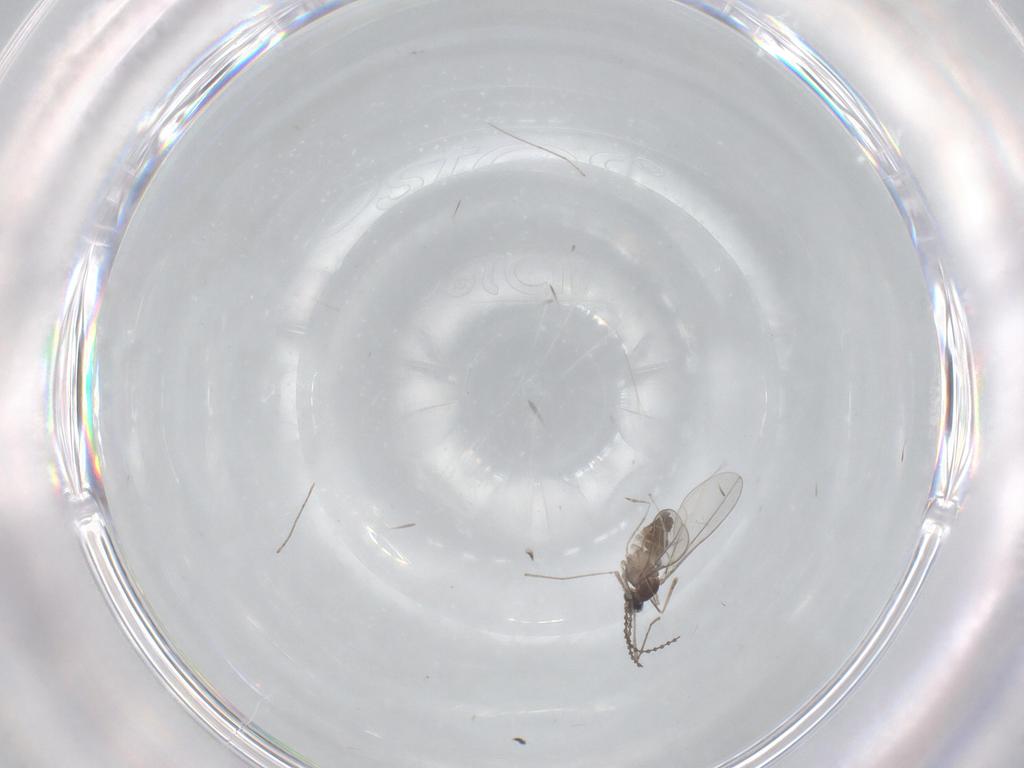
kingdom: Animalia
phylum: Arthropoda
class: Insecta
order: Diptera
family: Cecidomyiidae
